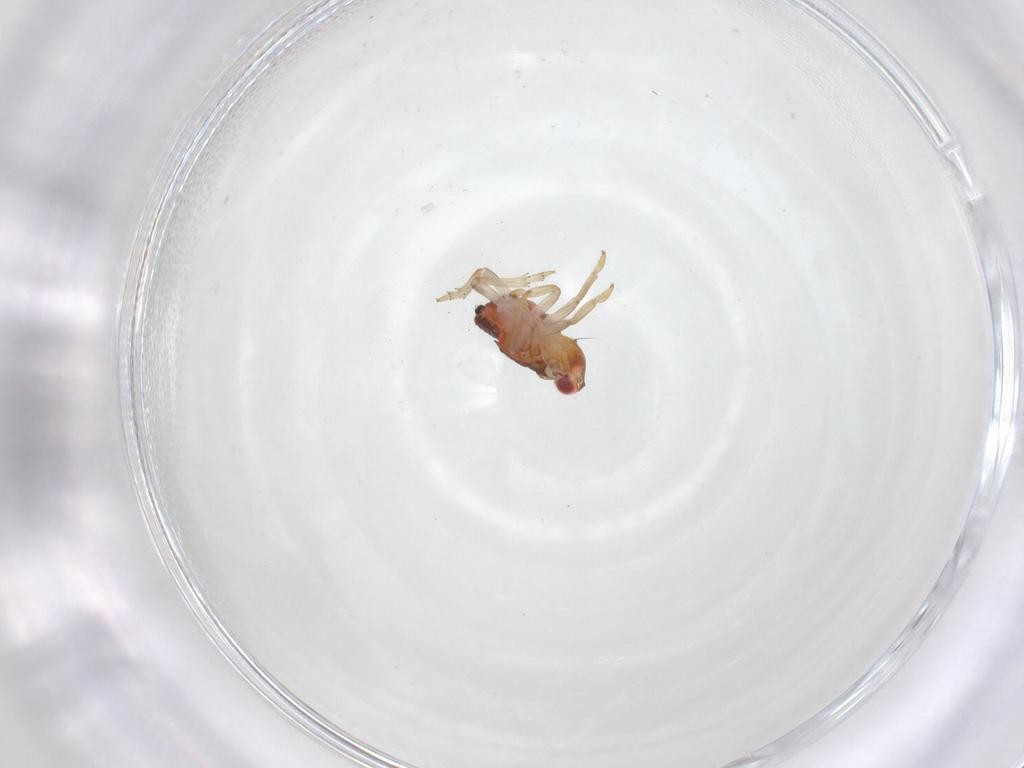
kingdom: Animalia
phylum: Arthropoda
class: Insecta
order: Hemiptera
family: Issidae
